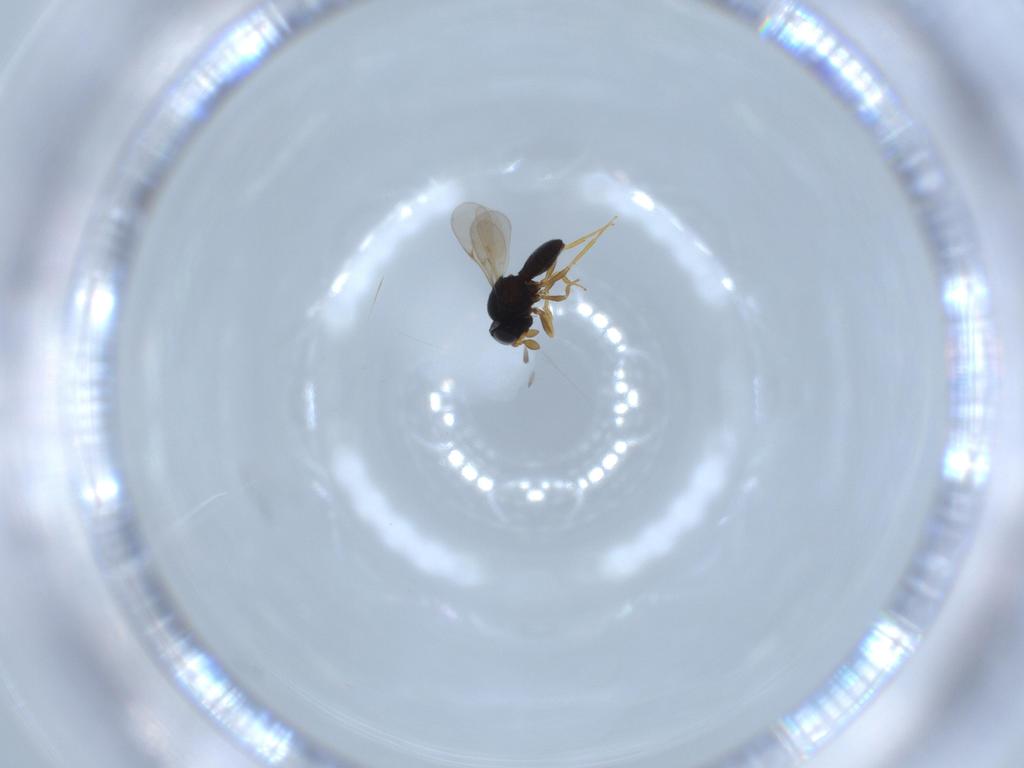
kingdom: Animalia
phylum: Arthropoda
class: Insecta
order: Hymenoptera
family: Scelionidae
